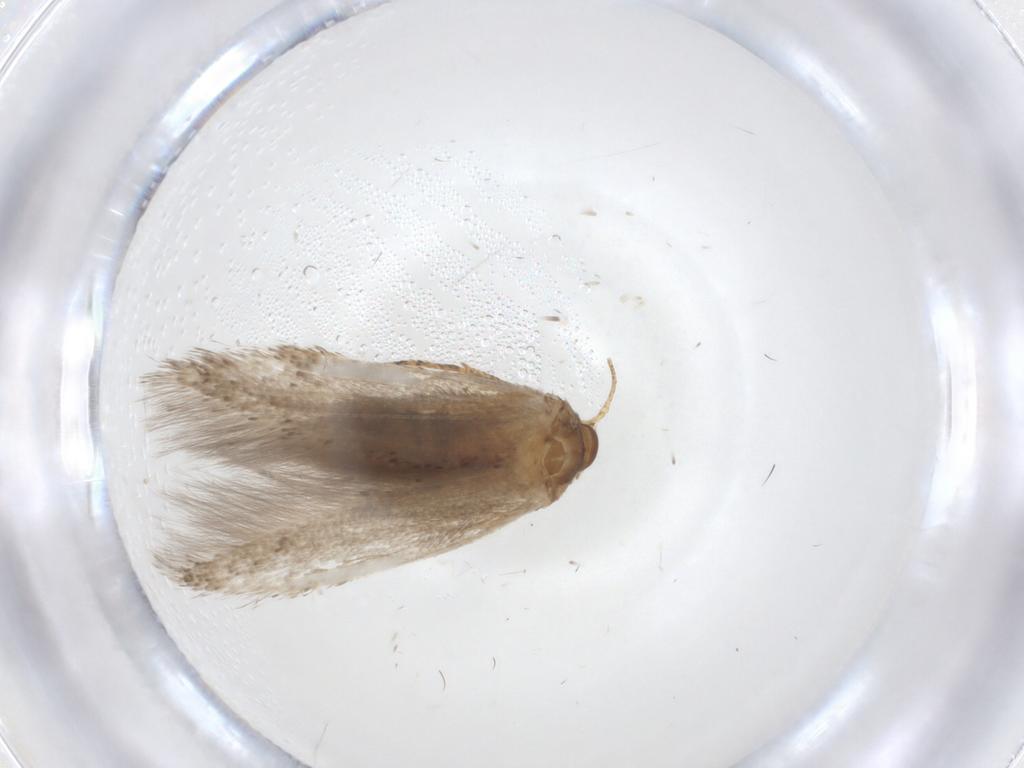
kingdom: Animalia
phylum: Arthropoda
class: Insecta
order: Lepidoptera
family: Blastobasidae
